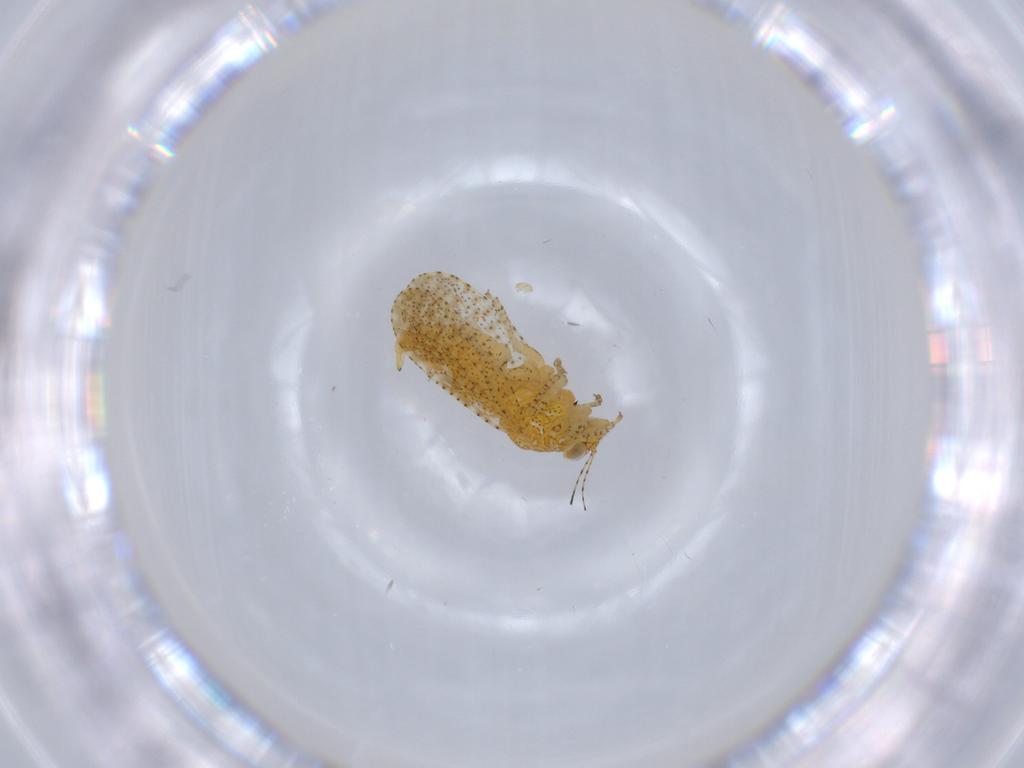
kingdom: Animalia
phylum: Arthropoda
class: Insecta
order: Hemiptera
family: Psyllidae
